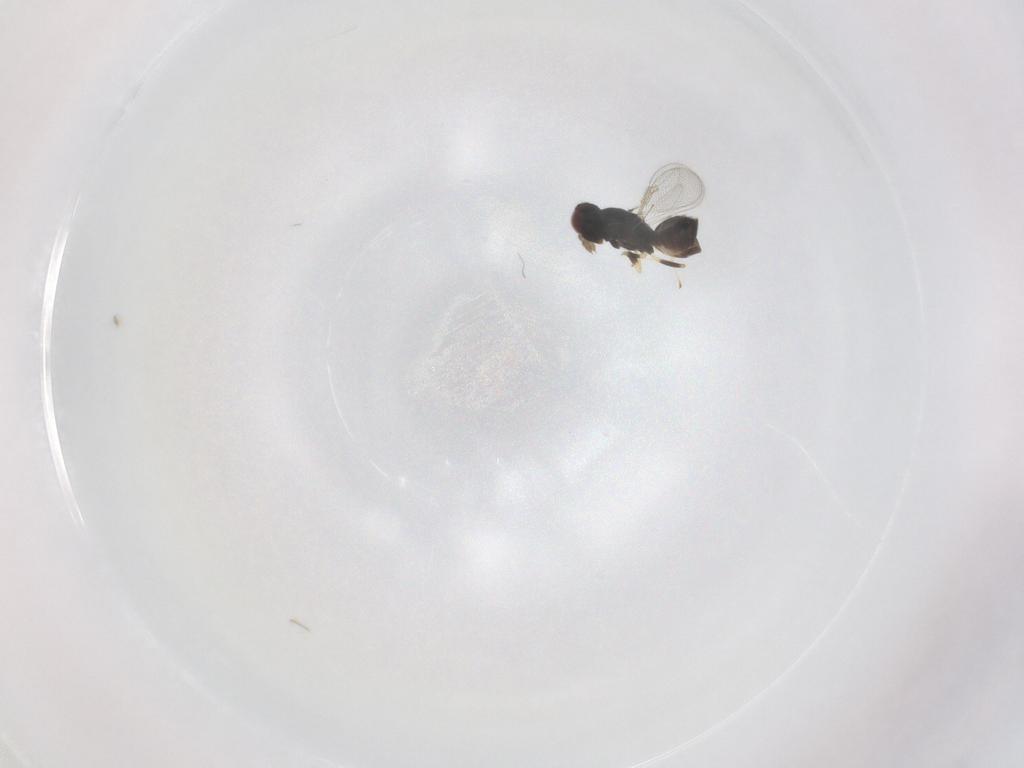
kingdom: Animalia
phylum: Arthropoda
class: Insecta
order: Hymenoptera
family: Eulophidae
